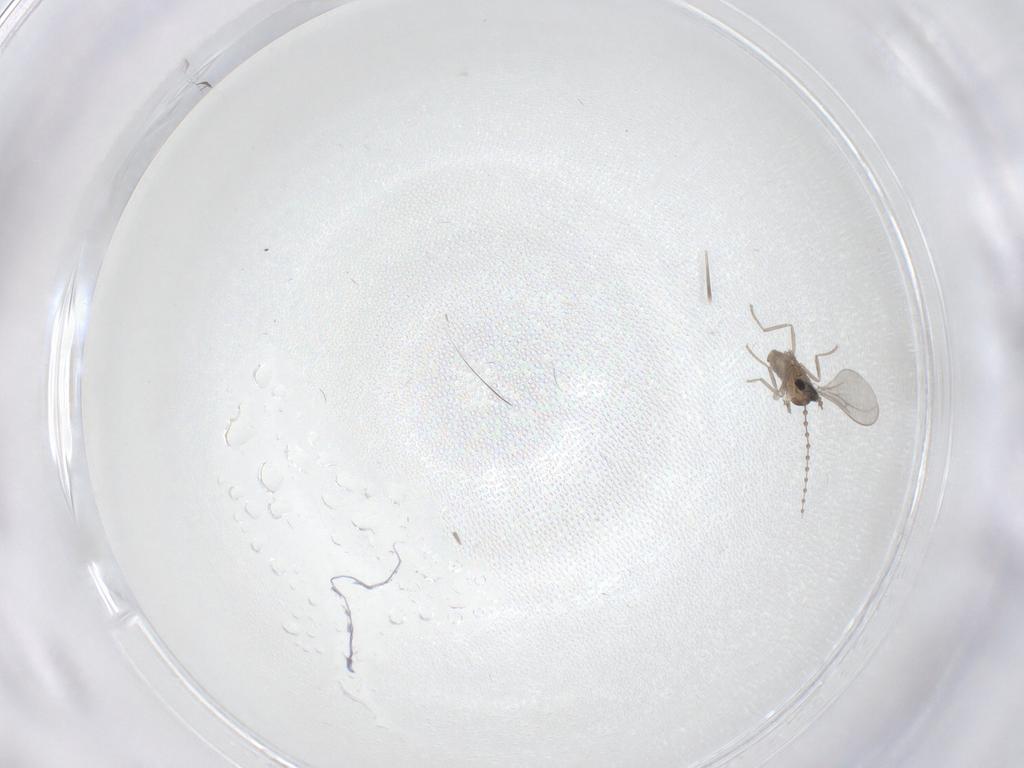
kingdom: Animalia
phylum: Arthropoda
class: Insecta
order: Diptera
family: Cecidomyiidae
